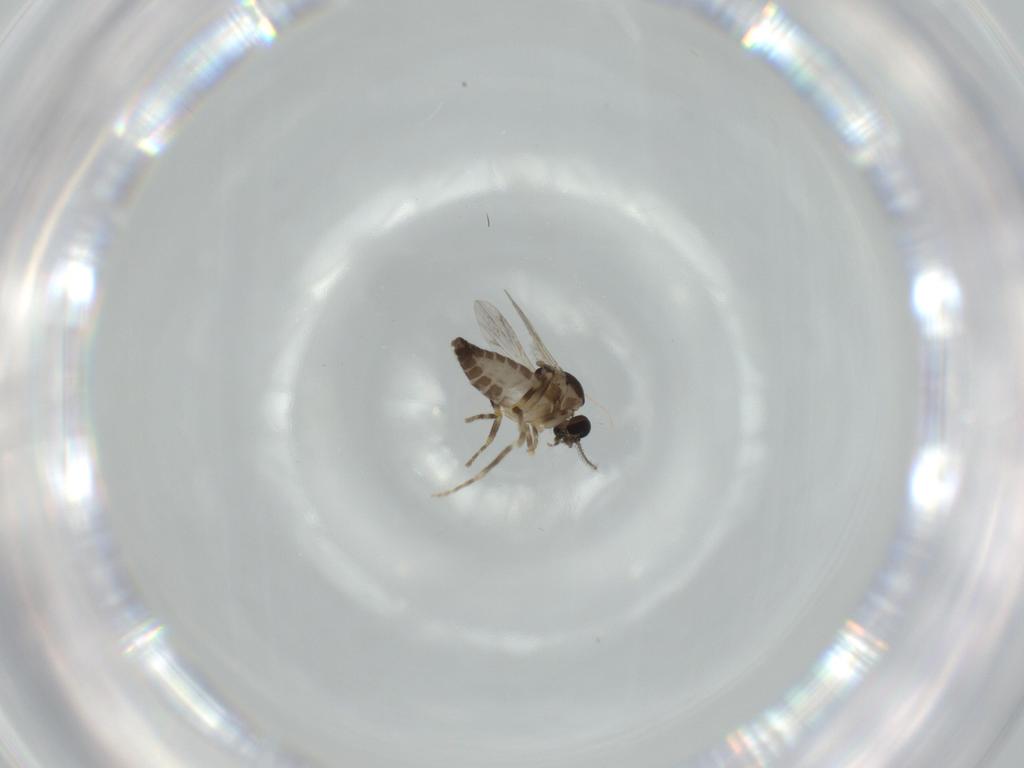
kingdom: Animalia
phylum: Arthropoda
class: Insecta
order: Diptera
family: Ceratopogonidae
